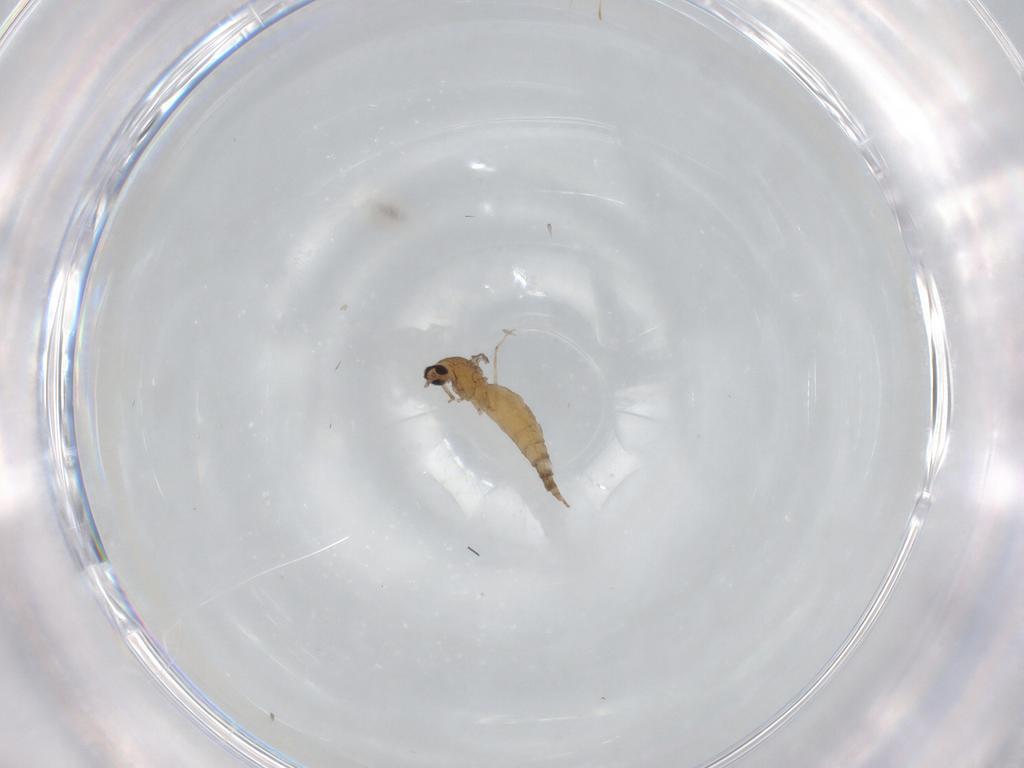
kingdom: Animalia
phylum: Arthropoda
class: Insecta
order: Diptera
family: Cecidomyiidae
